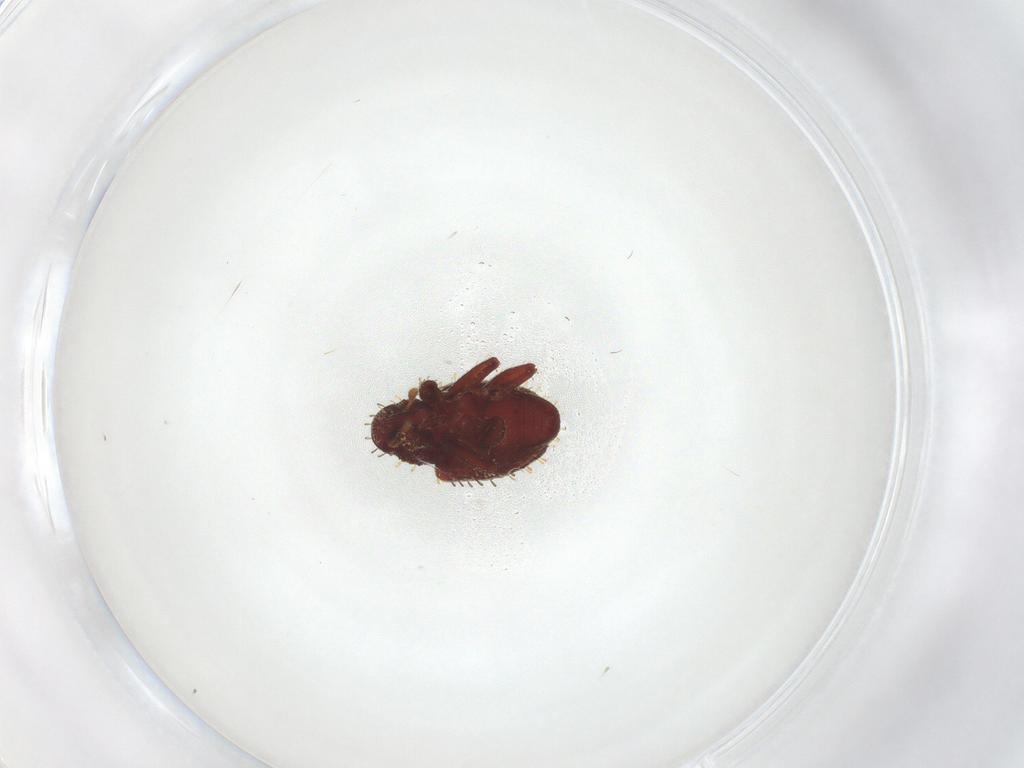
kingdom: Animalia
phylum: Arthropoda
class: Insecta
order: Coleoptera
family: Curculionidae
